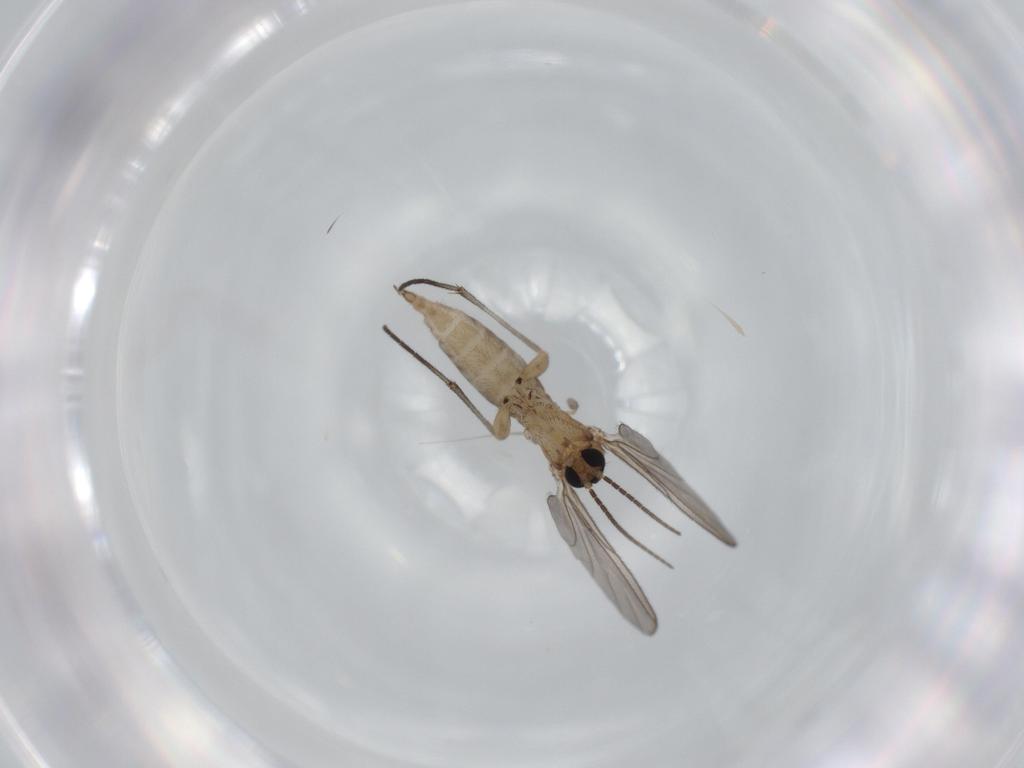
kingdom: Animalia
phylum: Arthropoda
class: Insecta
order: Diptera
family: Sciaridae
